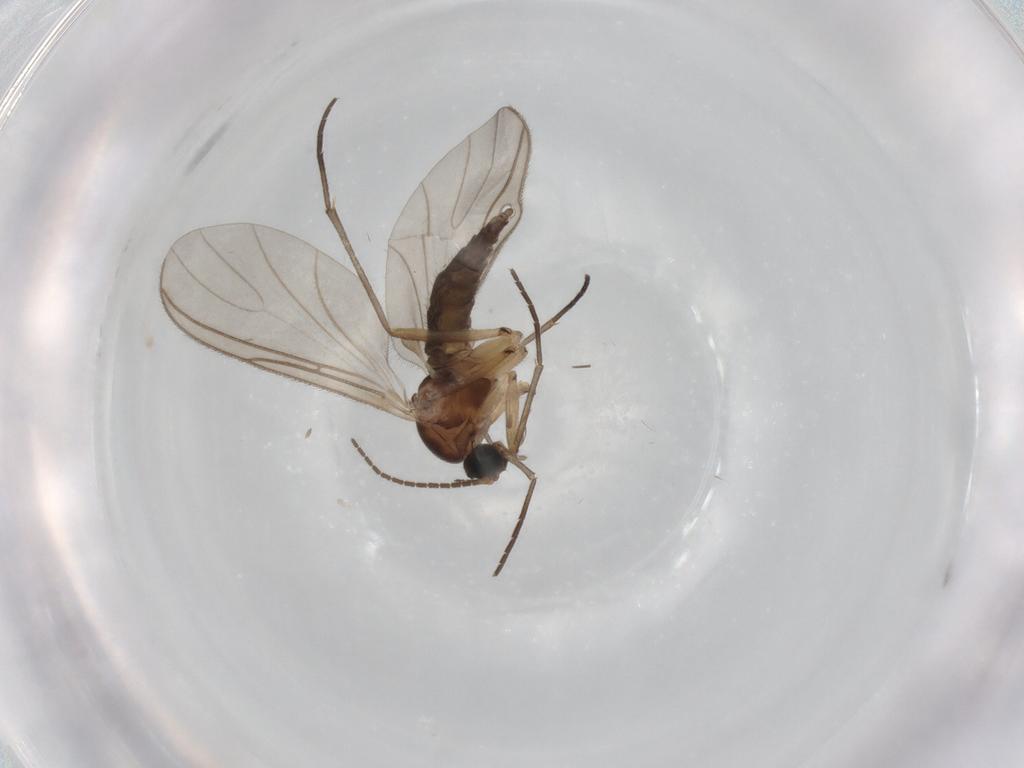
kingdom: Animalia
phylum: Arthropoda
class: Insecta
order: Diptera
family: Sciaridae
